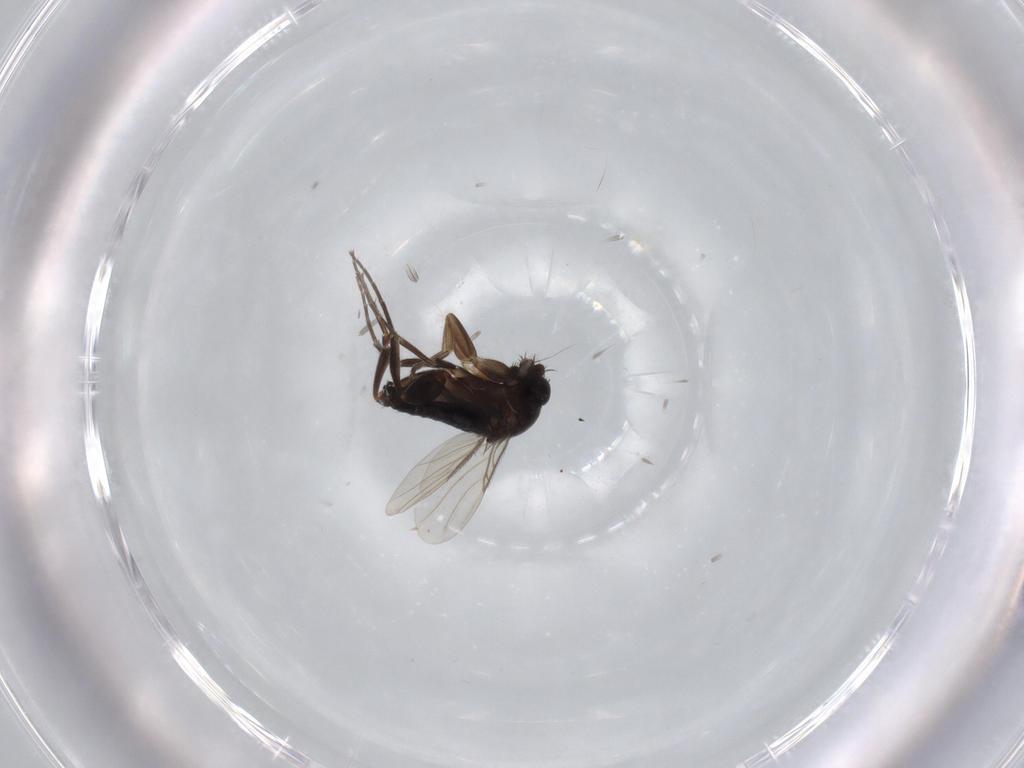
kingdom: Animalia
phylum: Arthropoda
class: Insecta
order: Diptera
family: Phoridae
